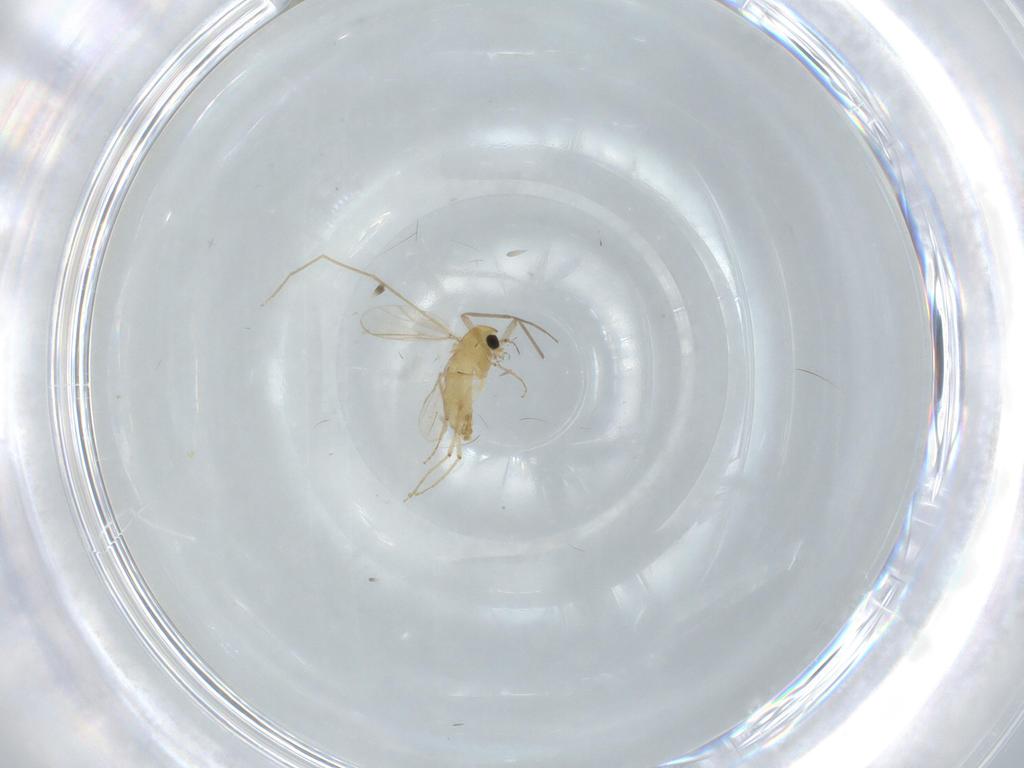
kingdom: Animalia
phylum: Arthropoda
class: Insecta
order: Diptera
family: Chironomidae
